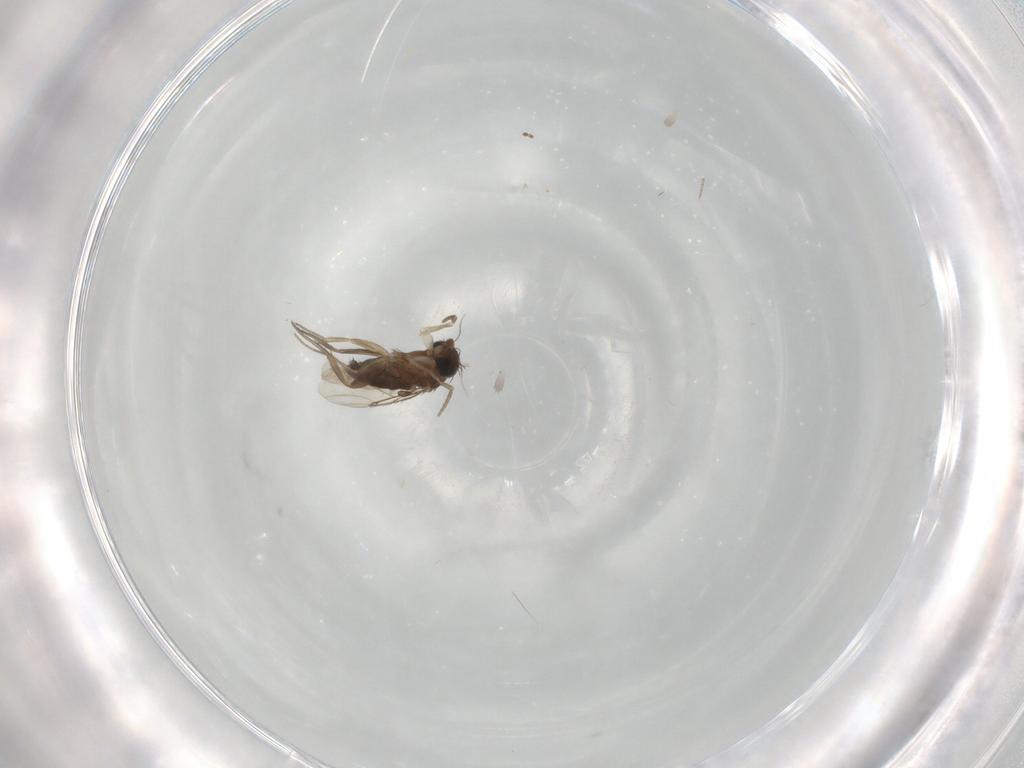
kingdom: Animalia
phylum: Arthropoda
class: Insecta
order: Diptera
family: Phoridae
